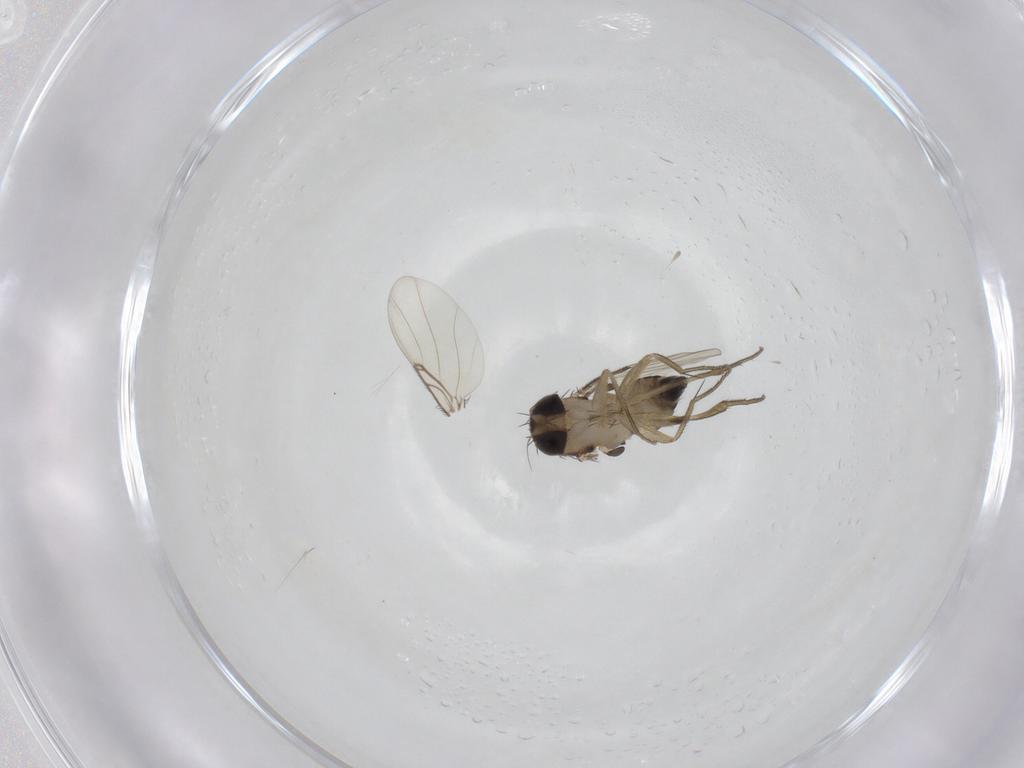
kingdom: Animalia
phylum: Arthropoda
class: Insecta
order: Diptera
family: Phoridae
